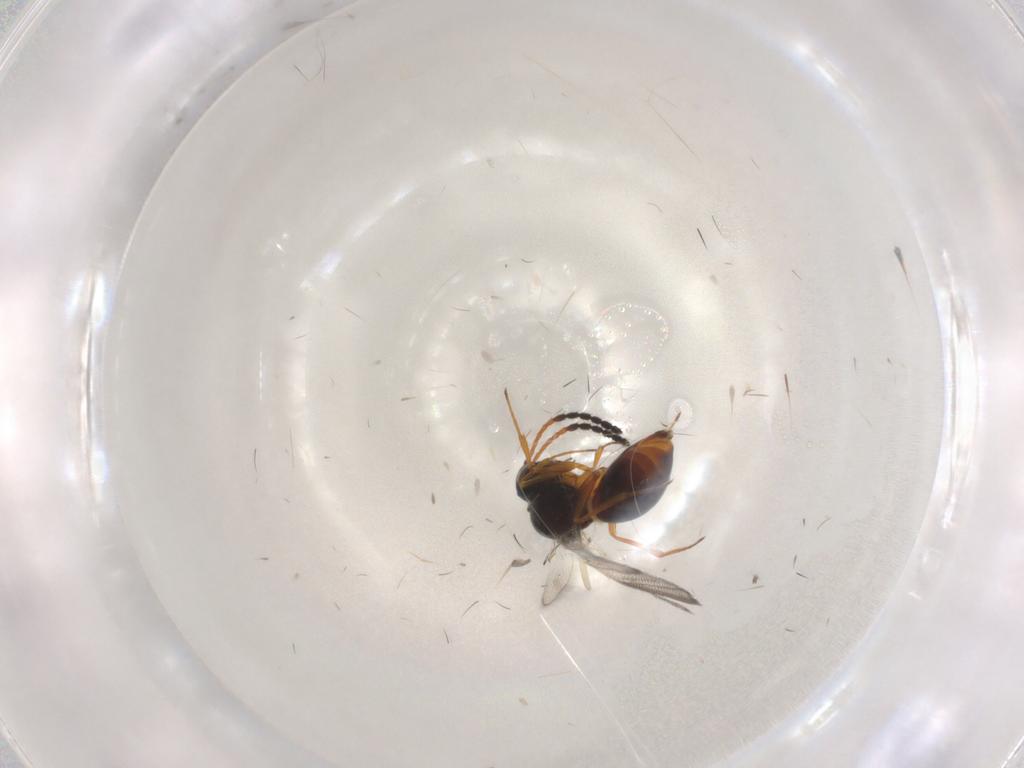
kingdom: Animalia
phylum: Arthropoda
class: Insecta
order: Hymenoptera
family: Figitidae
